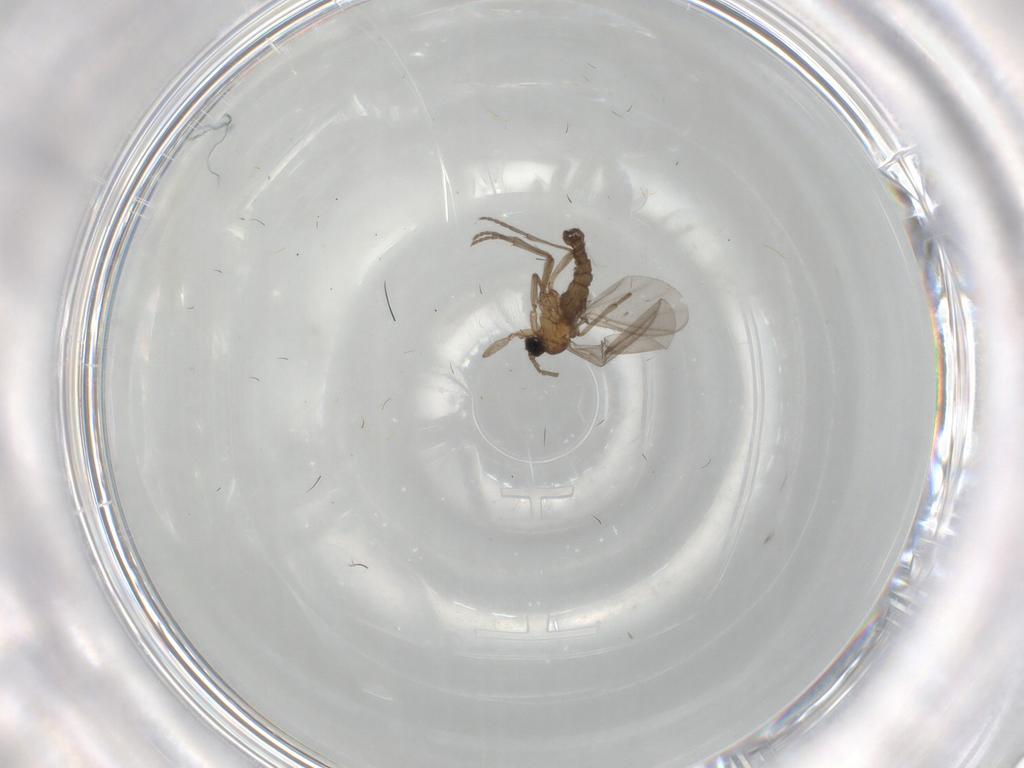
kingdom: Animalia
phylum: Arthropoda
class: Insecta
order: Diptera
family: Sciaridae
